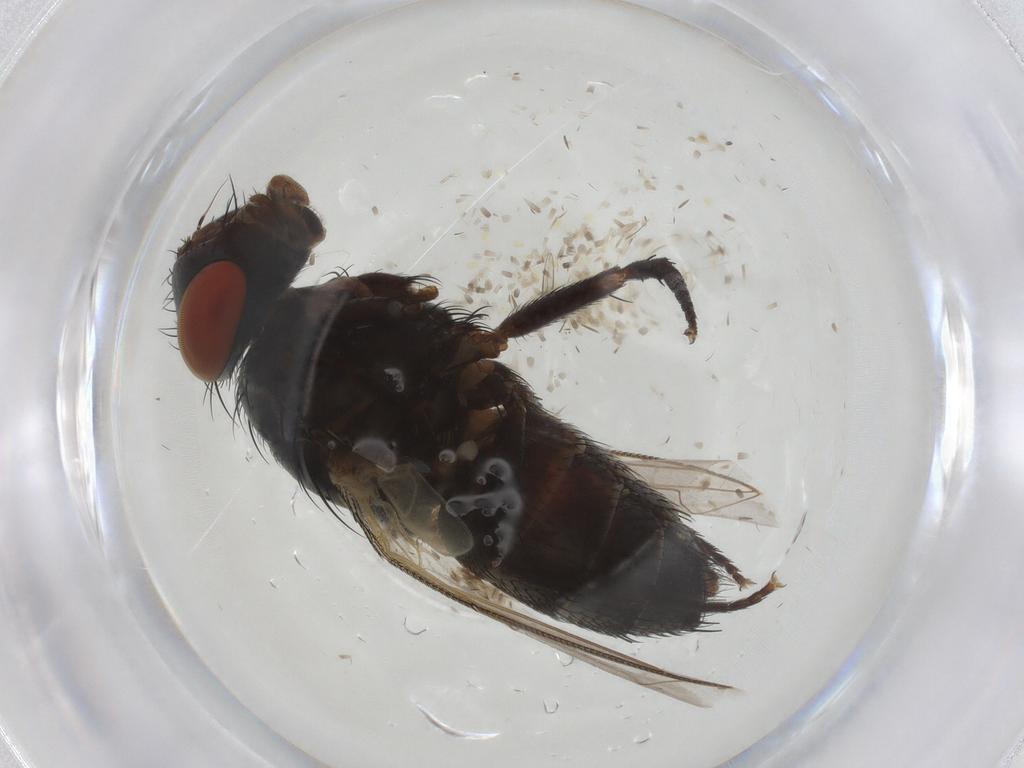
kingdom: Animalia
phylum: Arthropoda
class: Insecta
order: Diptera
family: Sarcophagidae
